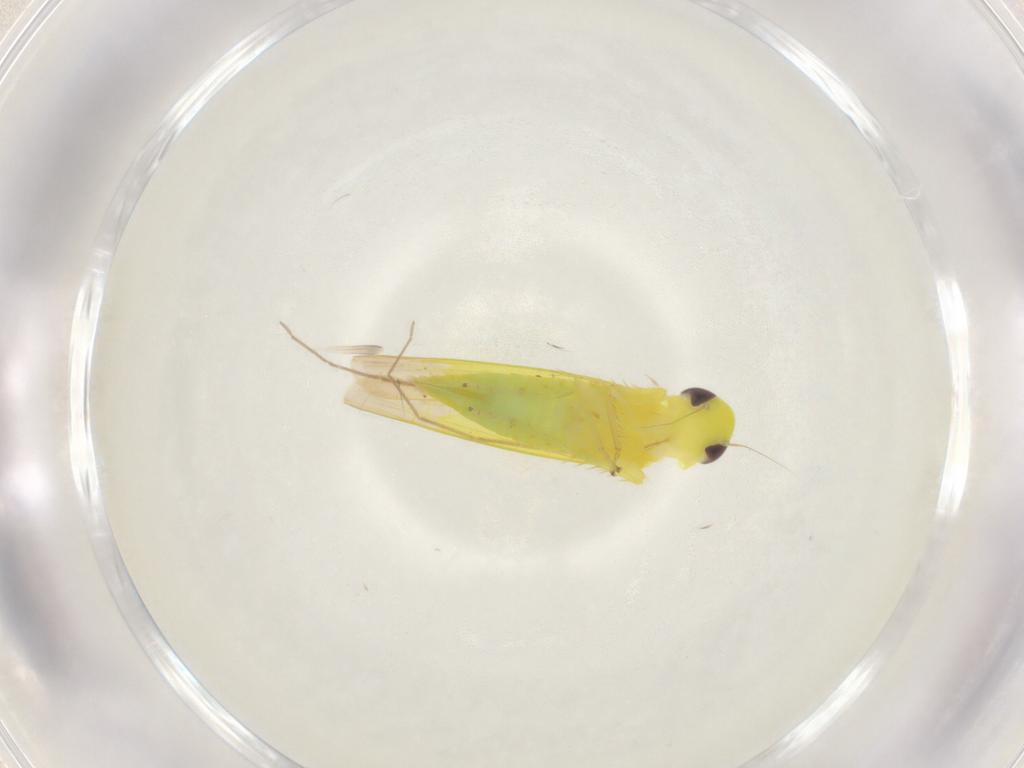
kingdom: Animalia
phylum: Arthropoda
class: Insecta
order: Hemiptera
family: Cicadellidae
